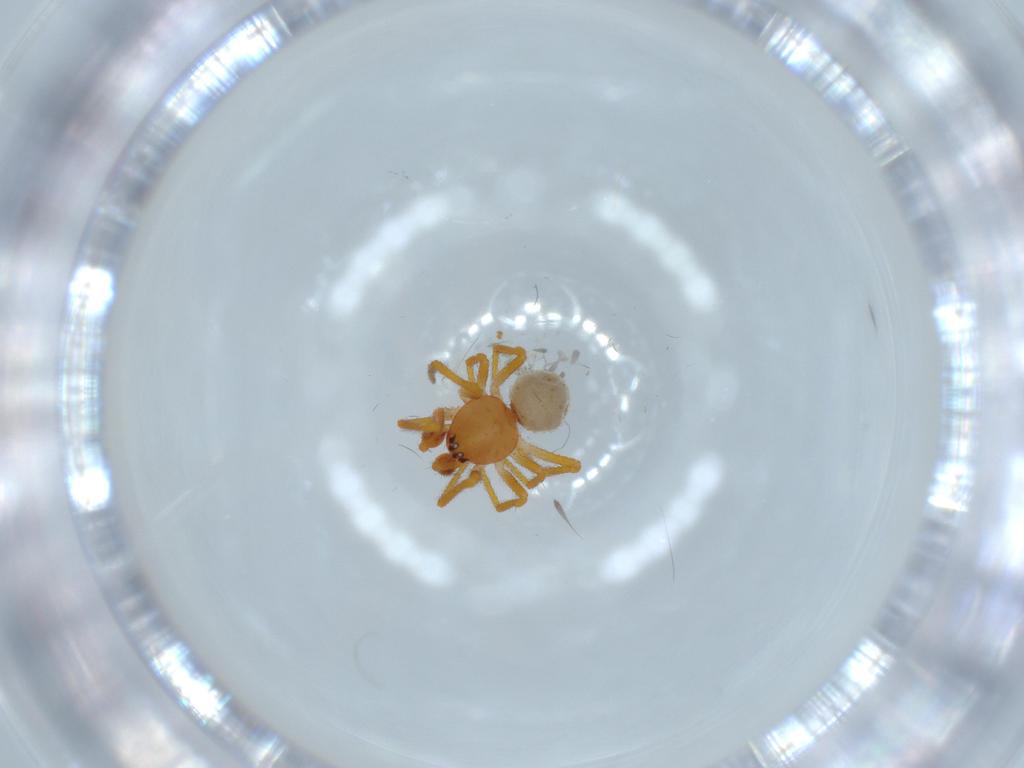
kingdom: Animalia
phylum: Arthropoda
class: Arachnida
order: Araneae
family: Theridiidae
